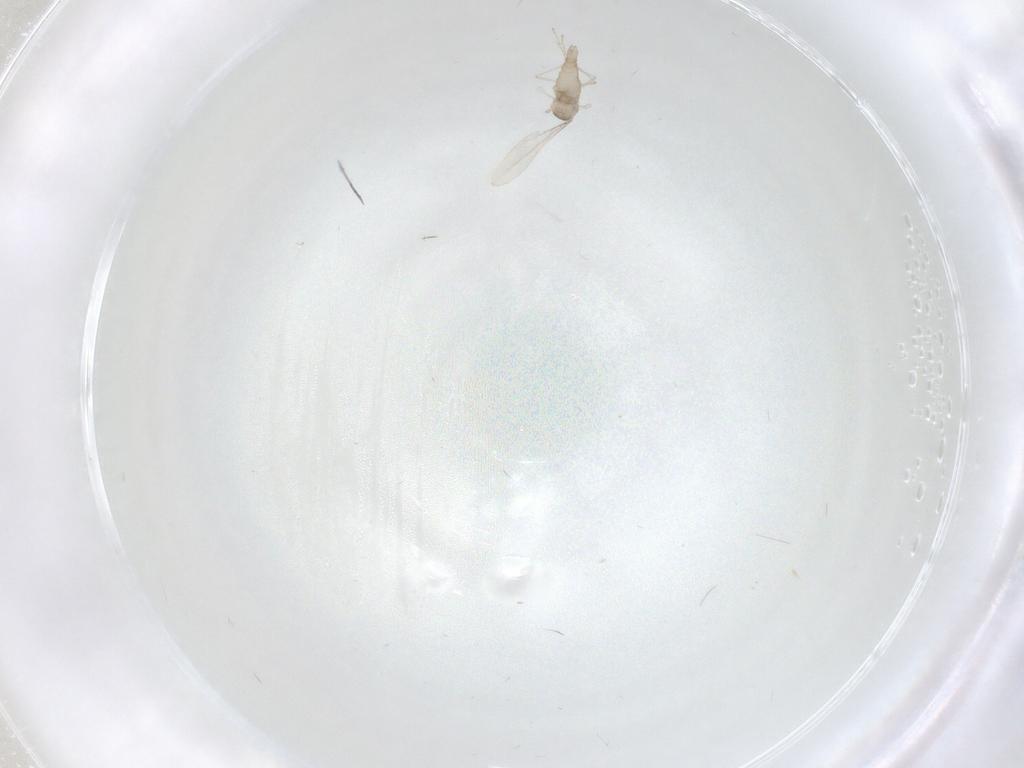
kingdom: Animalia
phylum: Arthropoda
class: Insecta
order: Diptera
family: Cecidomyiidae
